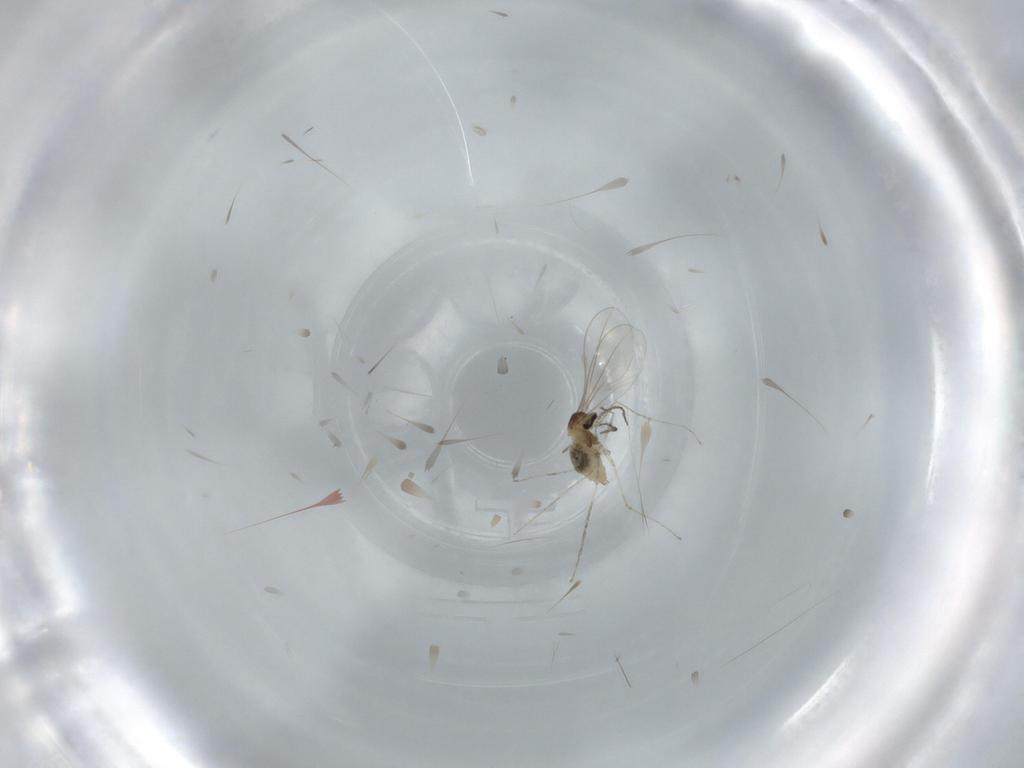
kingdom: Animalia
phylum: Arthropoda
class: Insecta
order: Diptera
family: Cecidomyiidae
